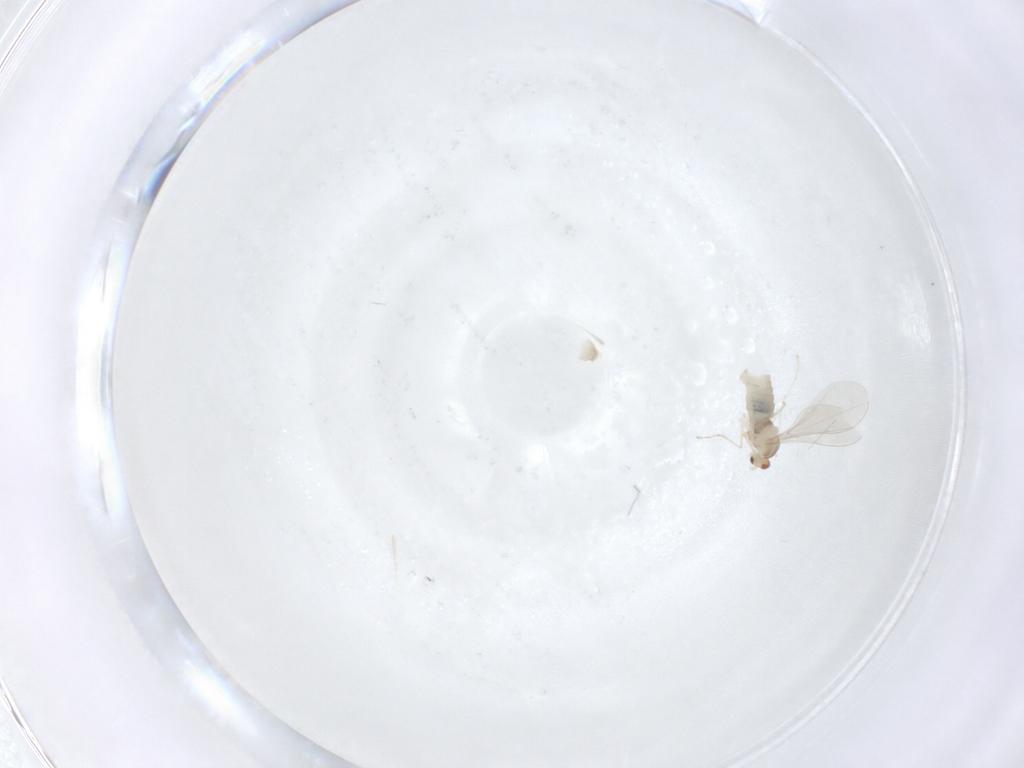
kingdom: Animalia
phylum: Arthropoda
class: Insecta
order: Diptera
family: Cecidomyiidae
